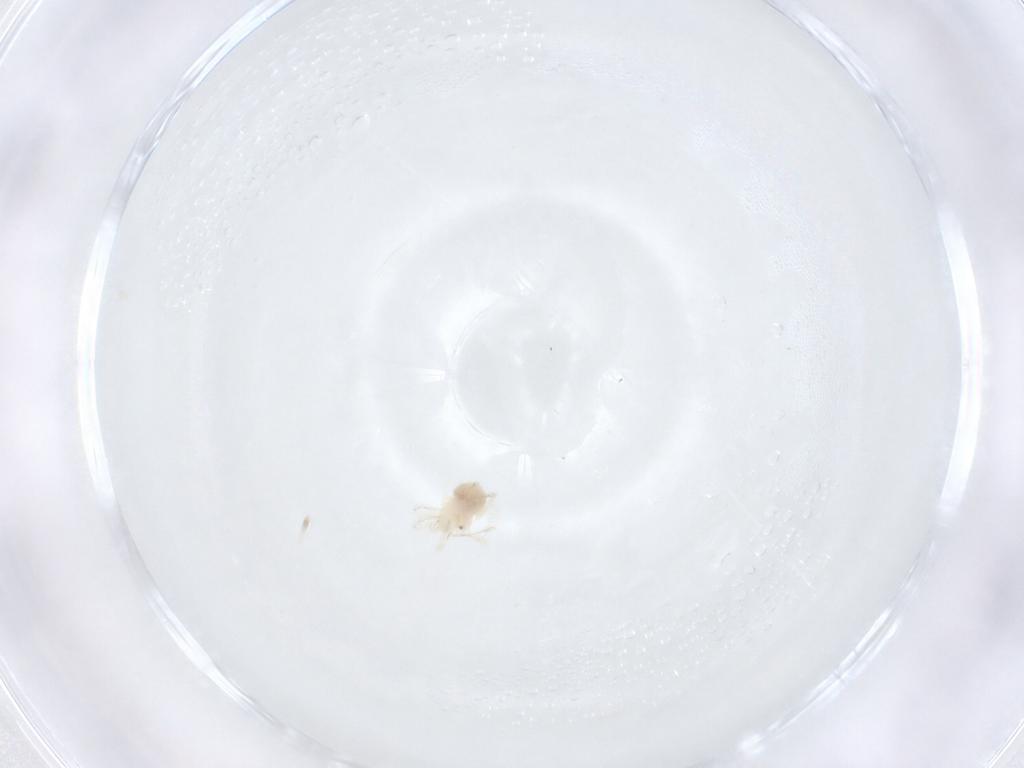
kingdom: Animalia
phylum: Arthropoda
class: Arachnida
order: Trombidiformes
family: Anystidae
